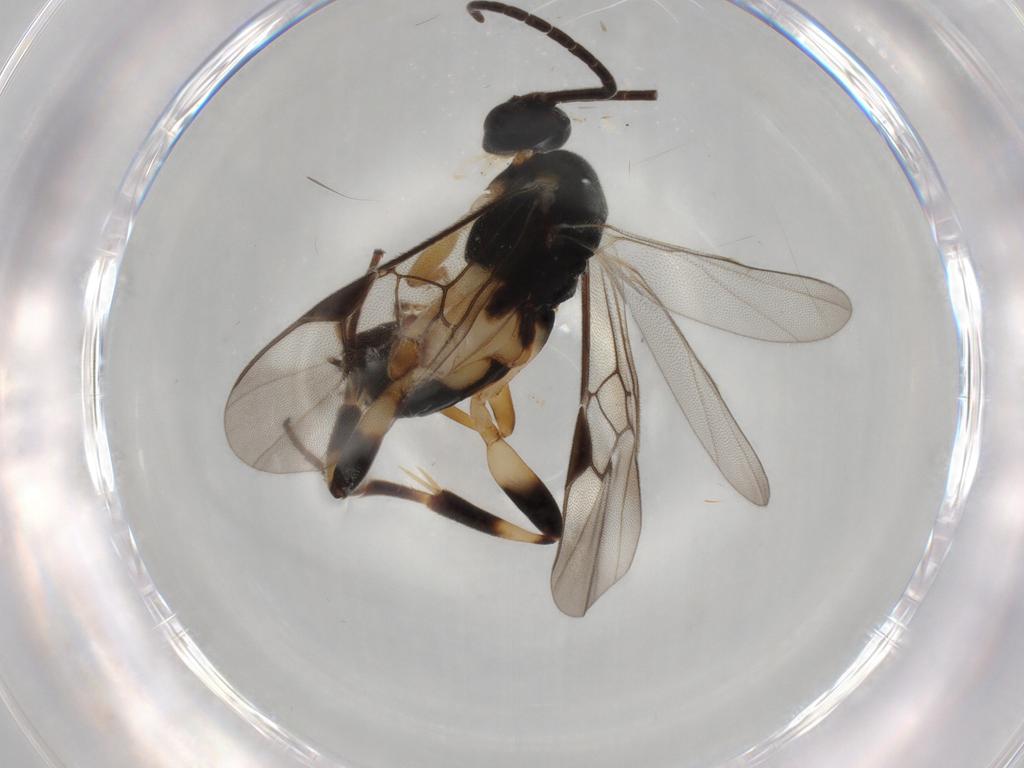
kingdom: Animalia
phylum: Arthropoda
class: Insecta
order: Hymenoptera
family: Braconidae
